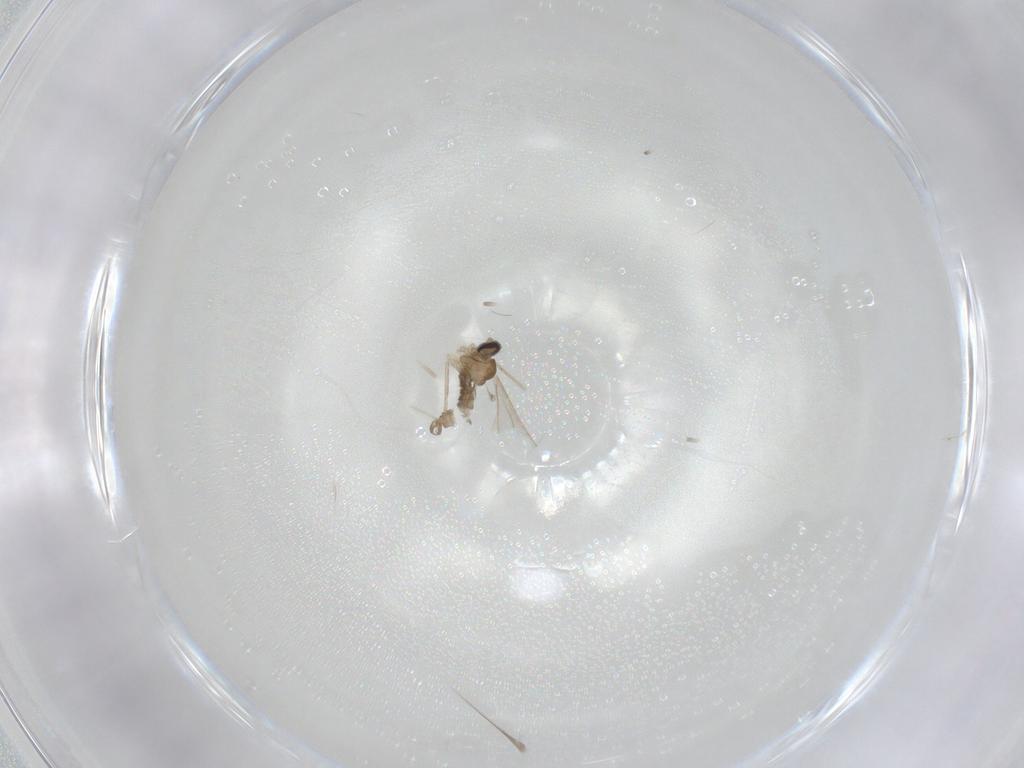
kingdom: Animalia
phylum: Arthropoda
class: Insecta
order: Diptera
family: Cecidomyiidae
